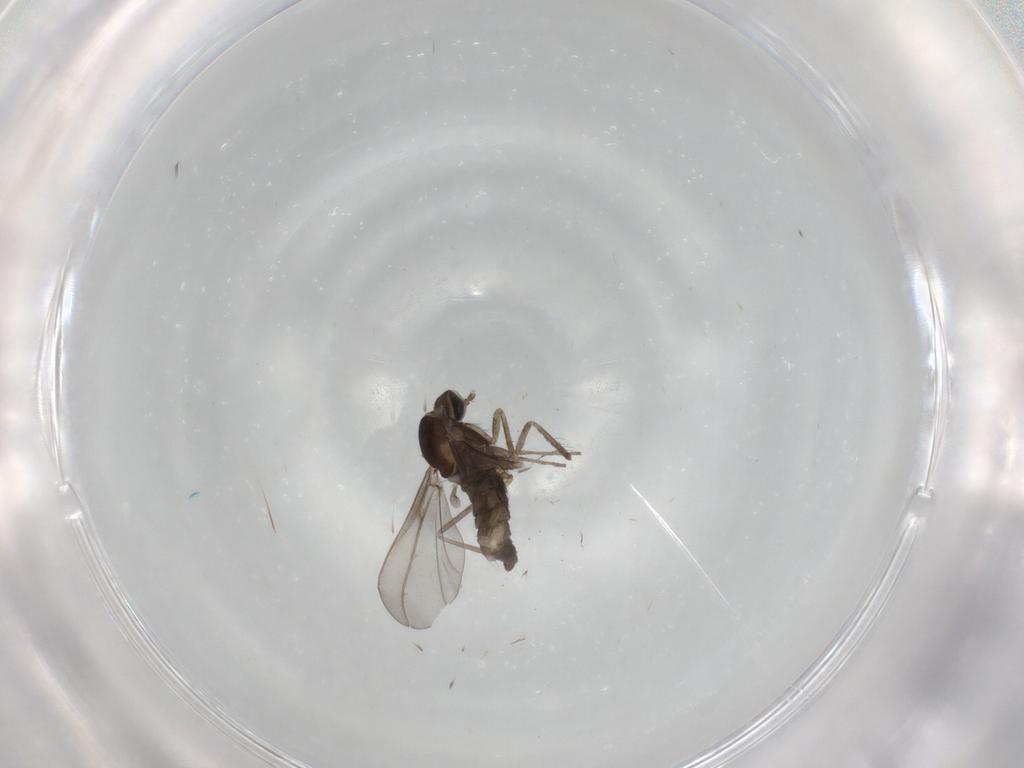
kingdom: Animalia
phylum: Arthropoda
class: Insecta
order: Diptera
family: Cecidomyiidae
